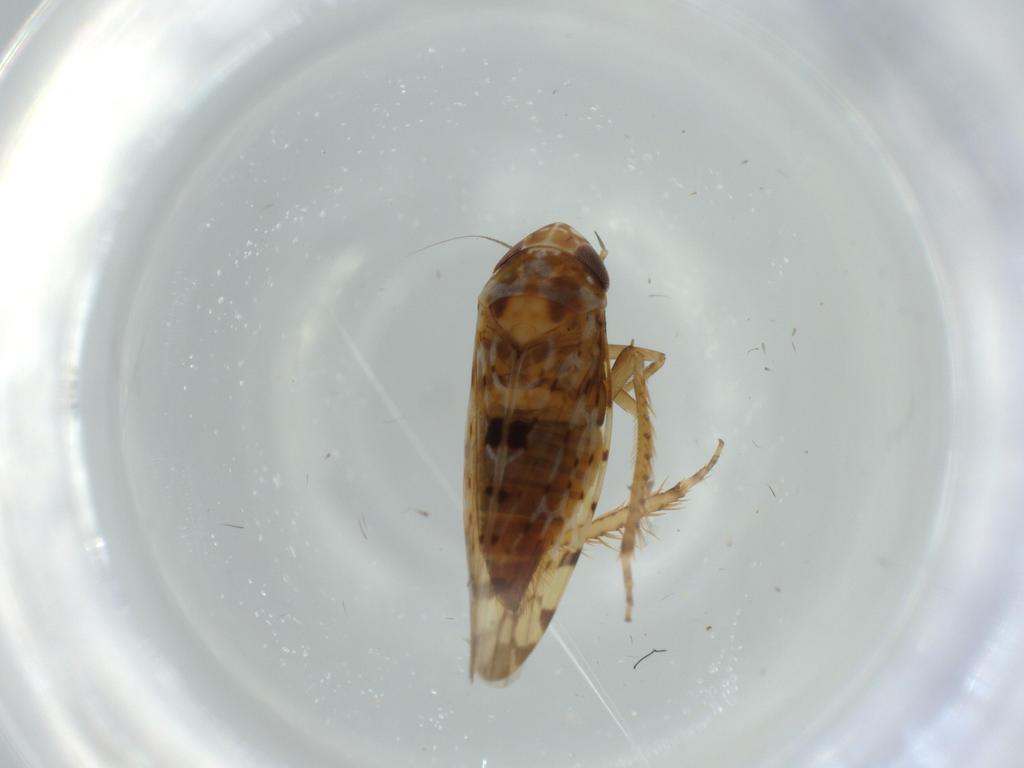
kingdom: Animalia
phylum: Arthropoda
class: Insecta
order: Hemiptera
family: Cicadellidae
